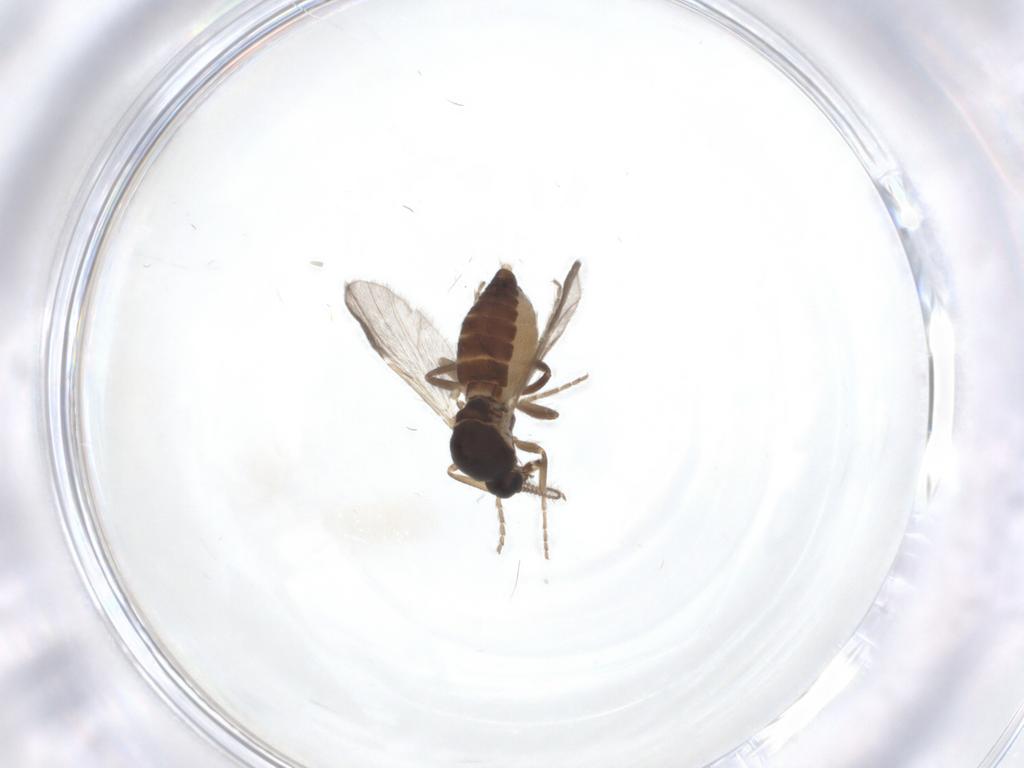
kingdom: Animalia
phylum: Arthropoda
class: Insecta
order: Diptera
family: Ceratopogonidae
